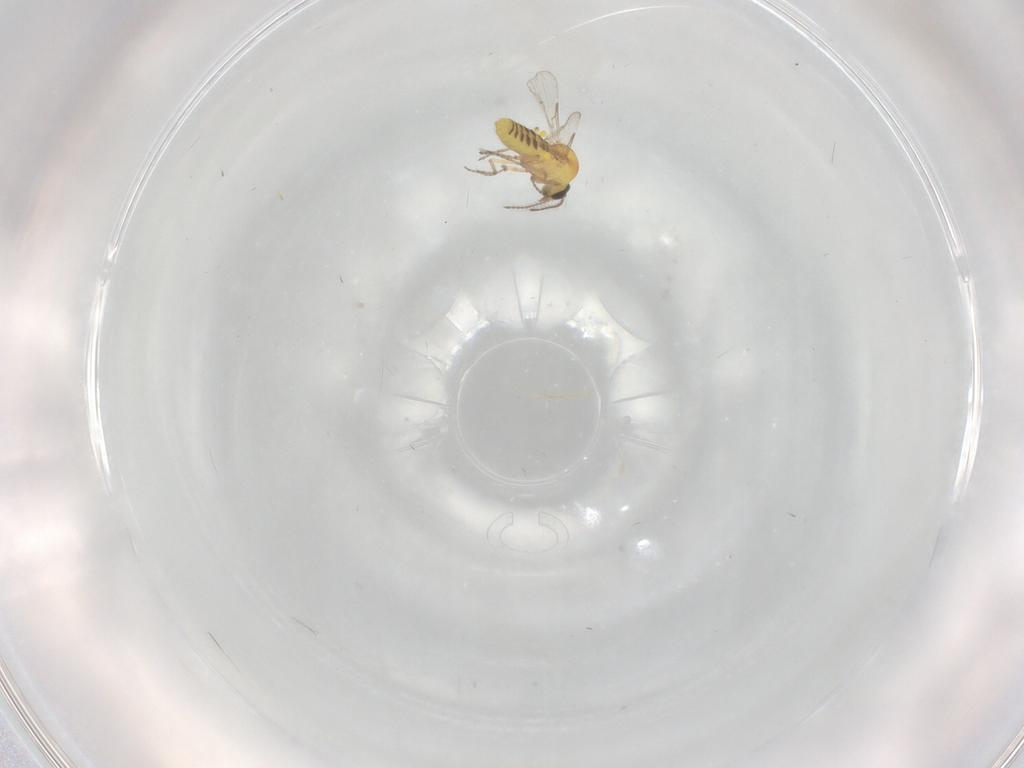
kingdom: Animalia
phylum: Arthropoda
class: Insecta
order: Diptera
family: Ceratopogonidae
